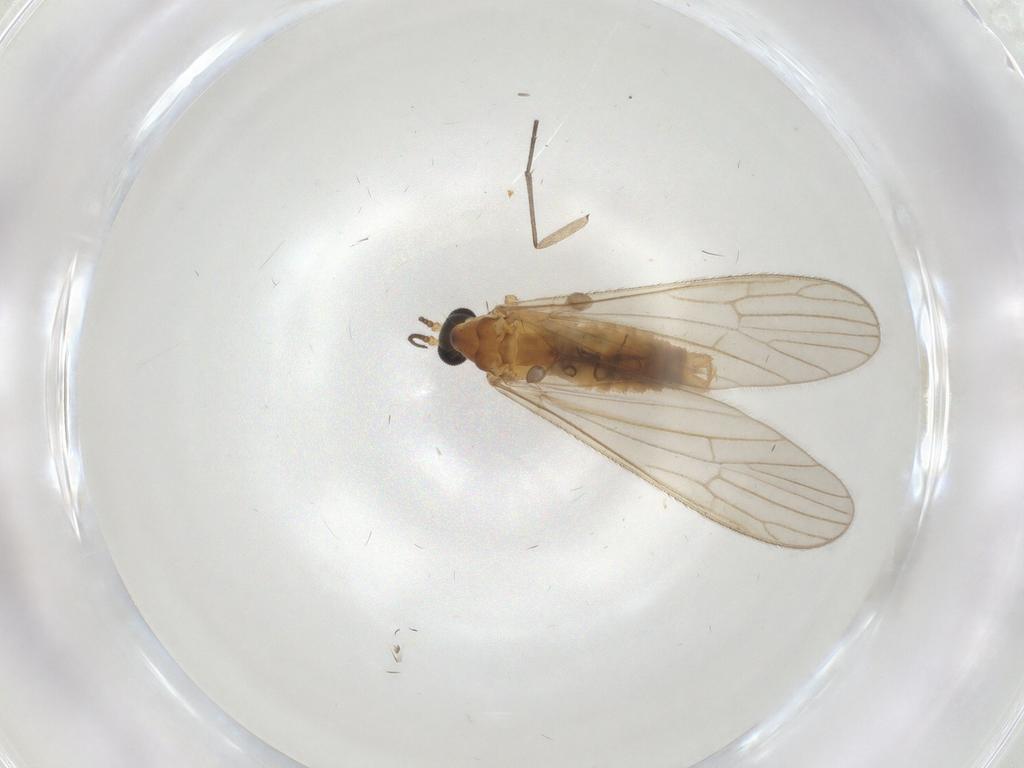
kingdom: Animalia
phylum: Arthropoda
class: Insecta
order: Diptera
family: Limoniidae
